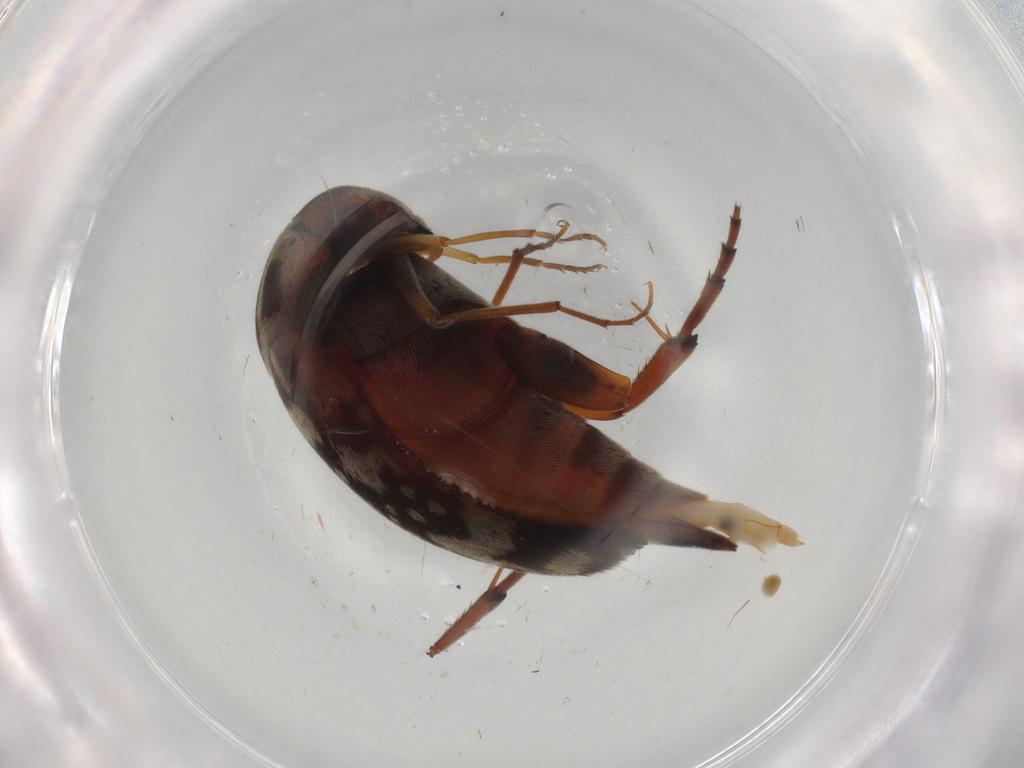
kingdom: Animalia
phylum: Arthropoda
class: Insecta
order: Coleoptera
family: Mordellidae
